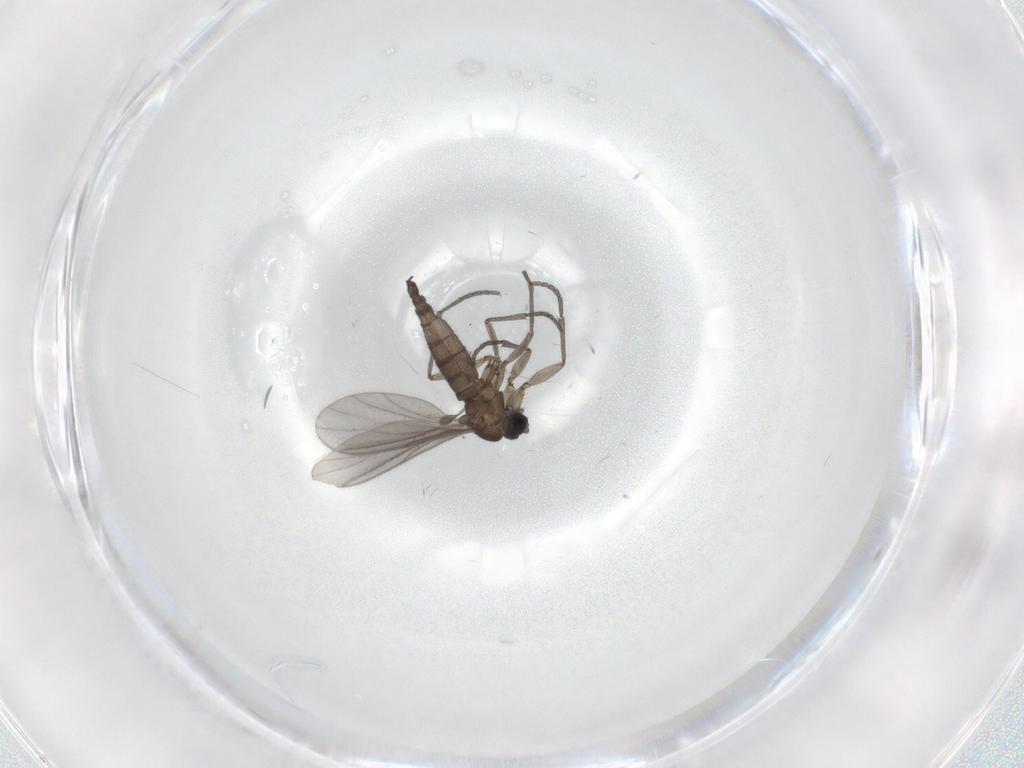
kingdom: Animalia
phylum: Arthropoda
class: Insecta
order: Diptera
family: Sciaridae
